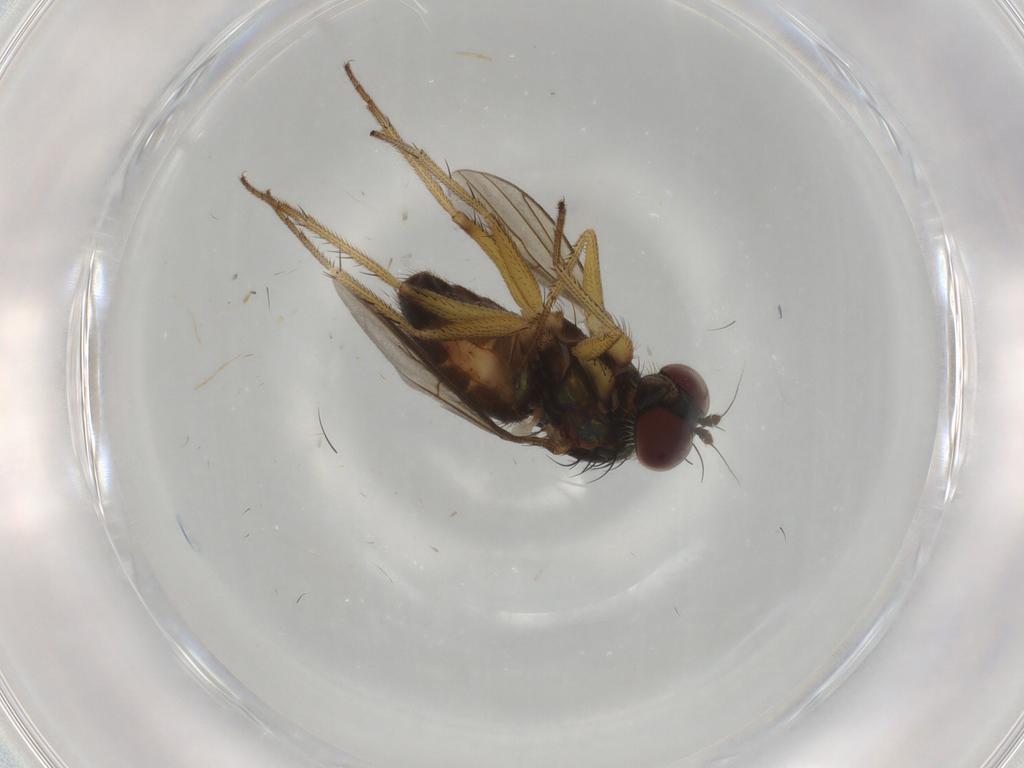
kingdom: Animalia
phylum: Arthropoda
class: Insecta
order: Diptera
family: Dolichopodidae
